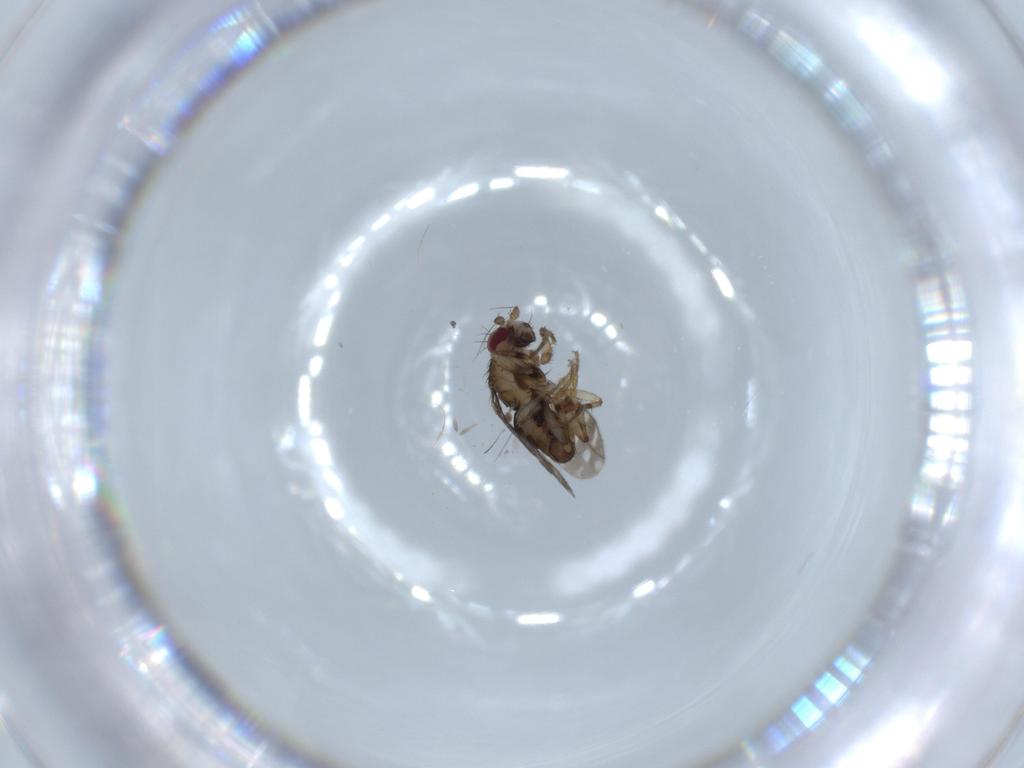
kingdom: Animalia
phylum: Arthropoda
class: Insecta
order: Diptera
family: Sphaeroceridae
